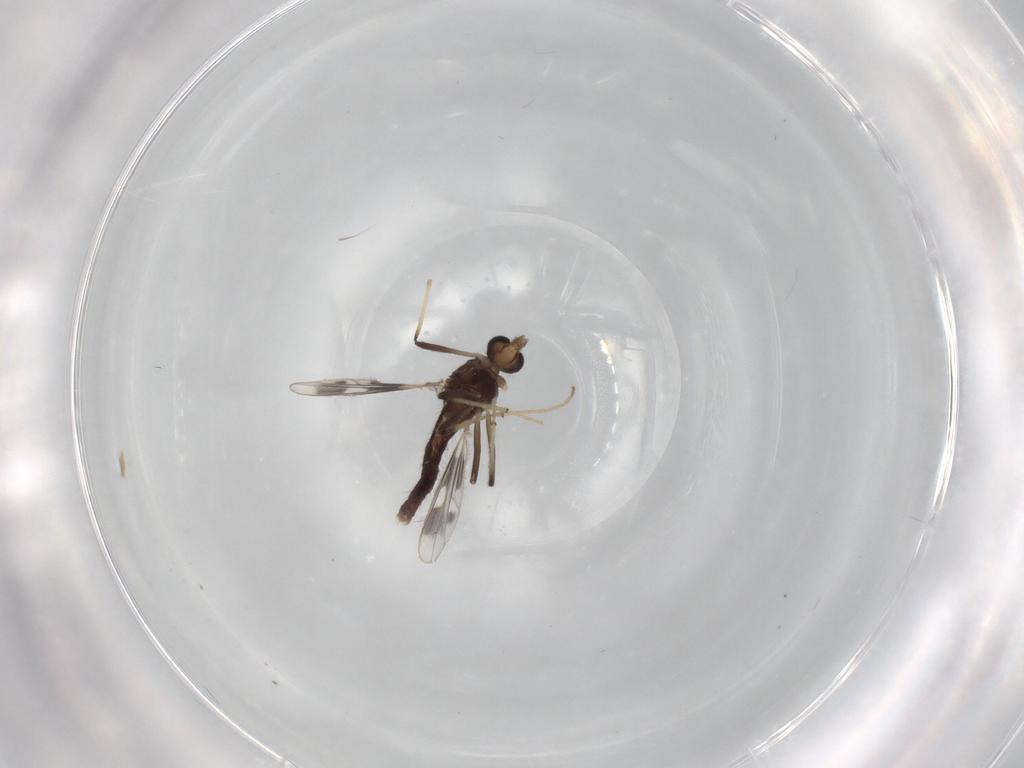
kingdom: Animalia
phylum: Arthropoda
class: Insecta
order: Diptera
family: Chironomidae
